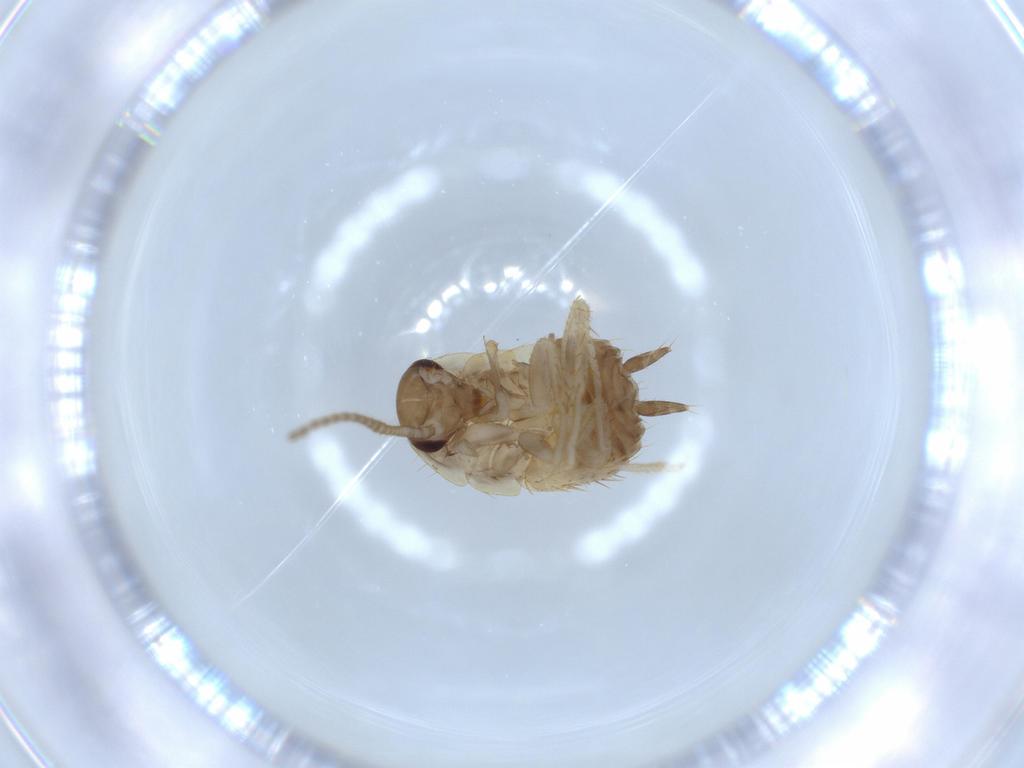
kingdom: Animalia
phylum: Arthropoda
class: Insecta
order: Blattodea
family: Ectobiidae
